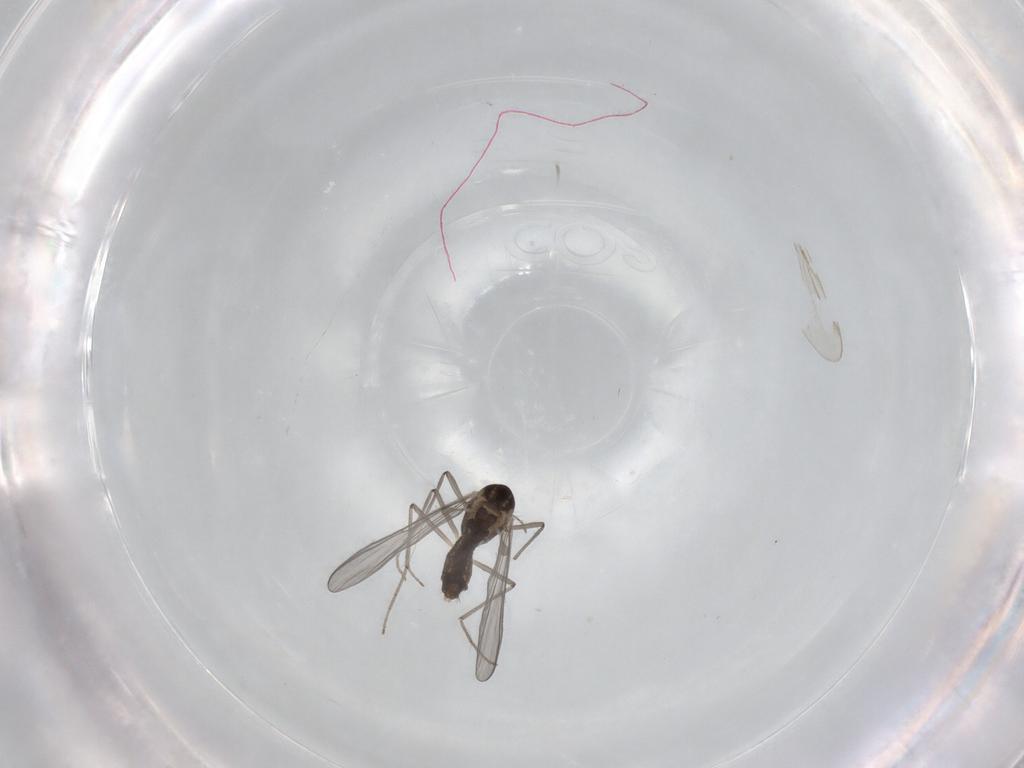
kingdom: Animalia
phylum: Arthropoda
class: Insecta
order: Diptera
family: Chironomidae
